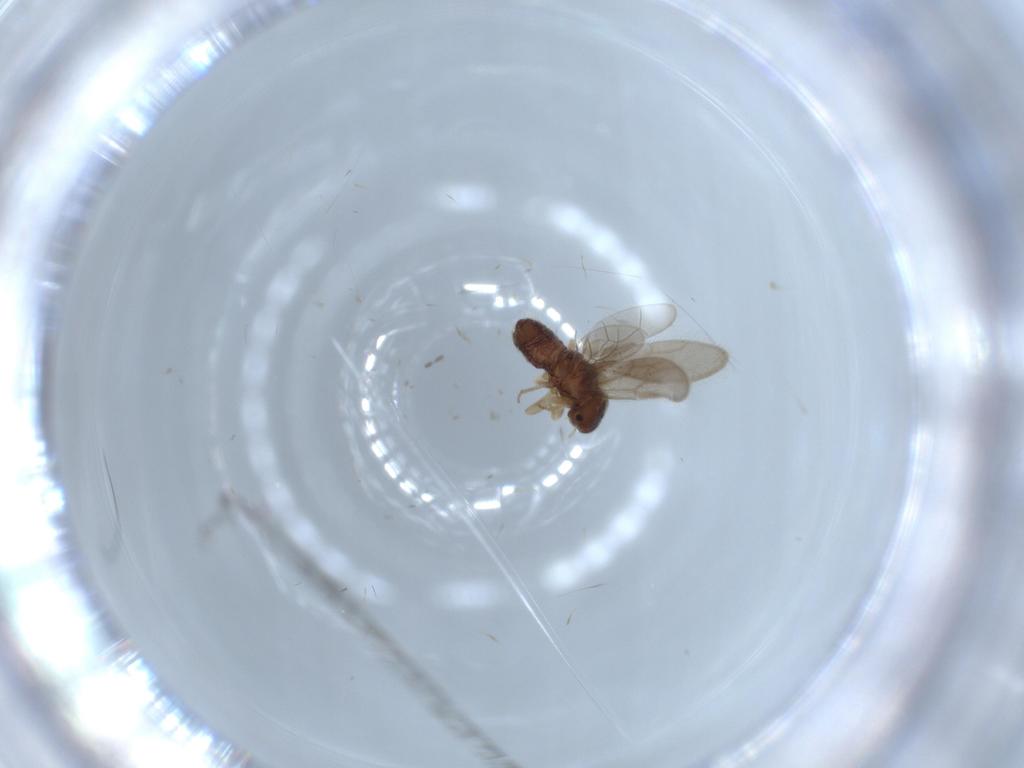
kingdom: Animalia
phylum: Arthropoda
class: Insecta
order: Psocodea
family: Archipsocidae
